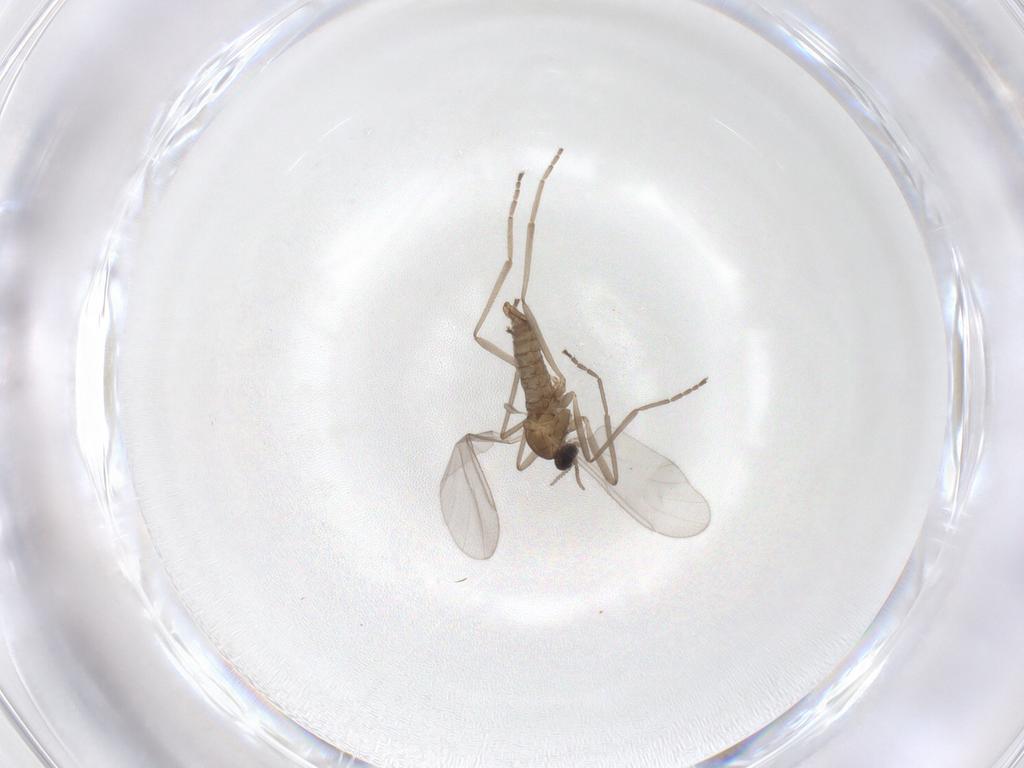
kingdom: Animalia
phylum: Arthropoda
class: Insecta
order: Diptera
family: Cecidomyiidae
